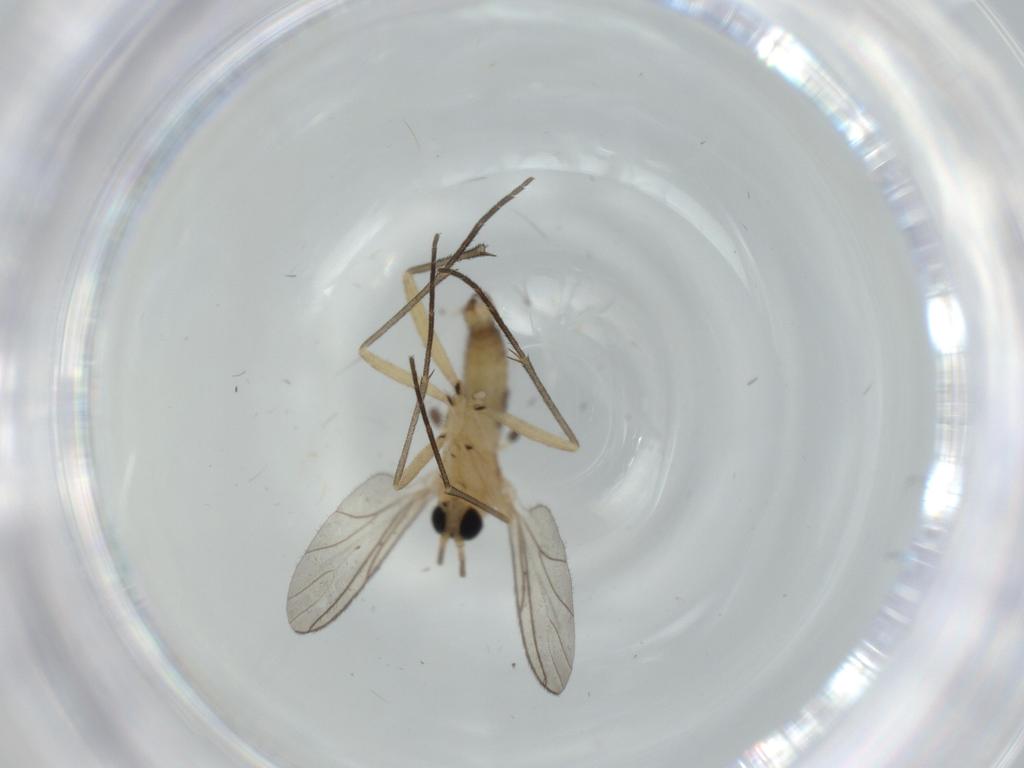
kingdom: Animalia
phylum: Arthropoda
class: Insecta
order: Diptera
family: Sciaridae
